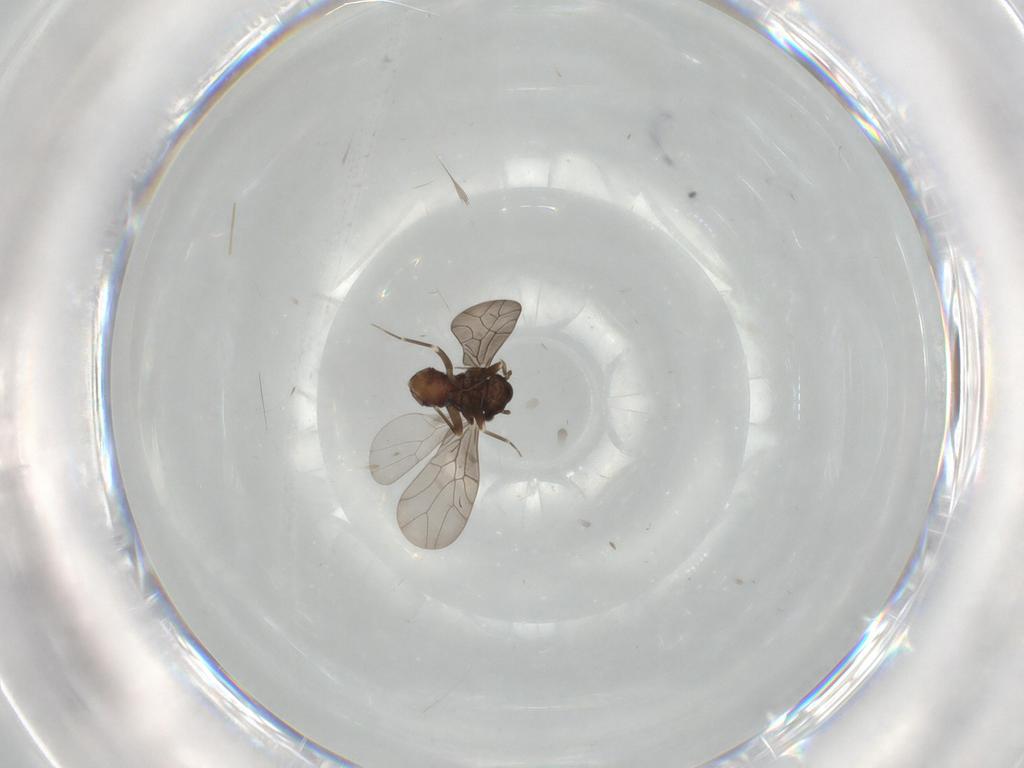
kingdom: Animalia
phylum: Arthropoda
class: Insecta
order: Psocodea
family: Lepidopsocidae
